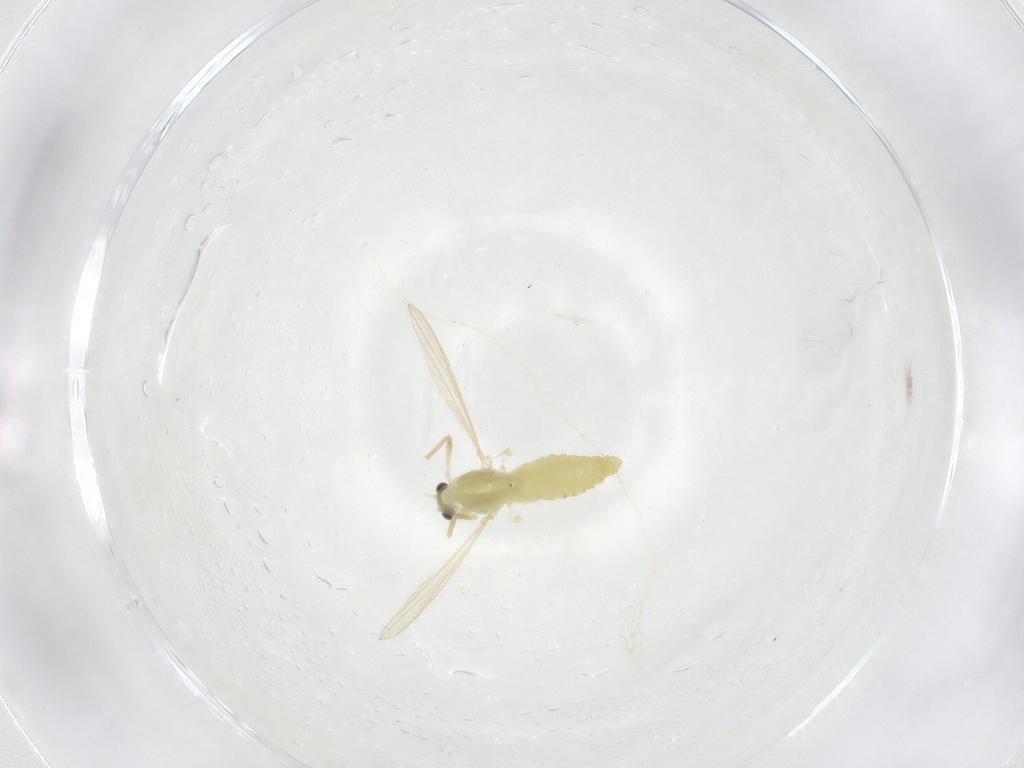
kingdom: Animalia
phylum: Arthropoda
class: Insecta
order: Diptera
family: Chironomidae
